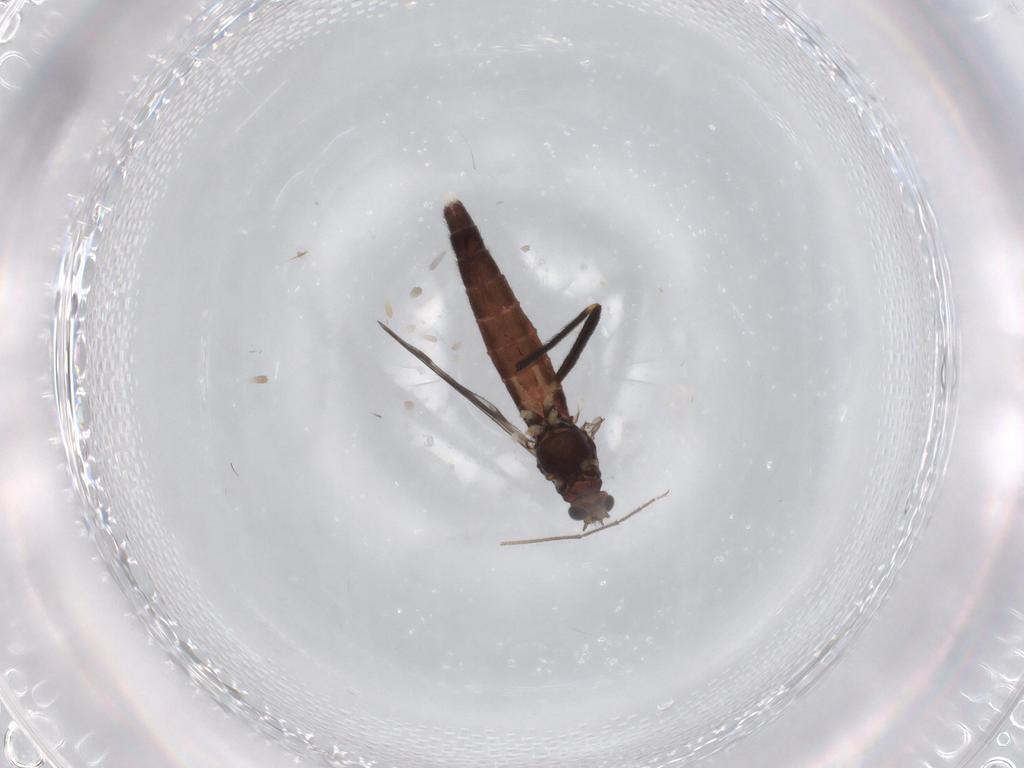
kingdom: Animalia
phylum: Arthropoda
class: Insecta
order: Diptera
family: Chironomidae
